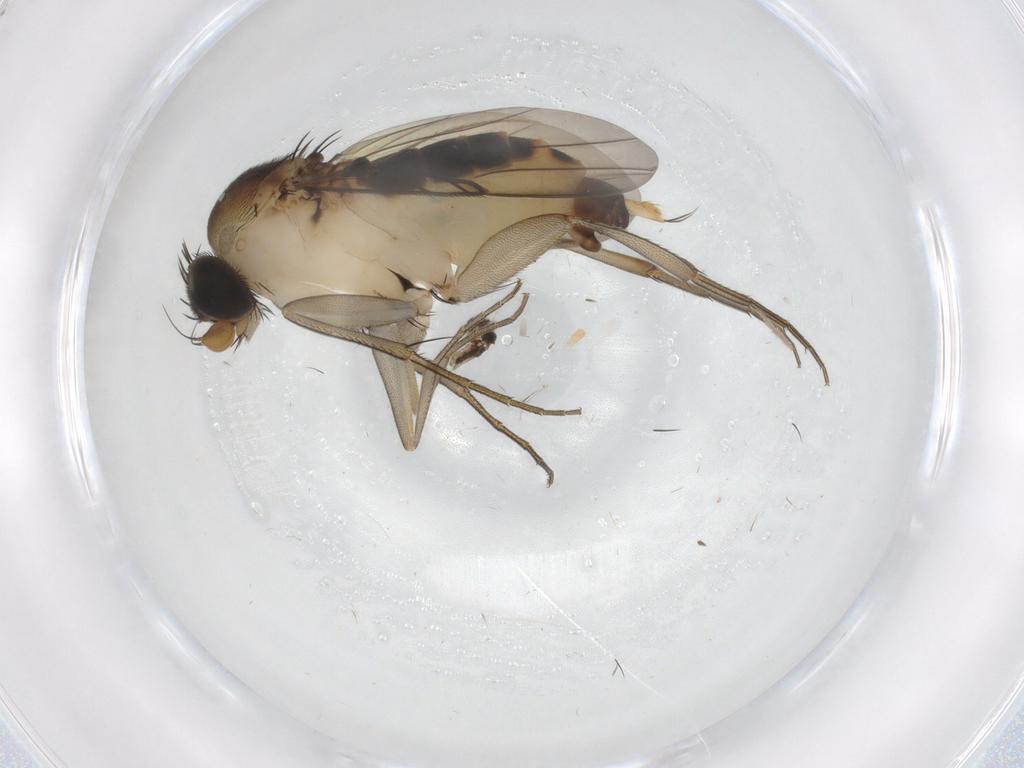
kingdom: Animalia
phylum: Arthropoda
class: Insecta
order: Diptera
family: Phoridae
